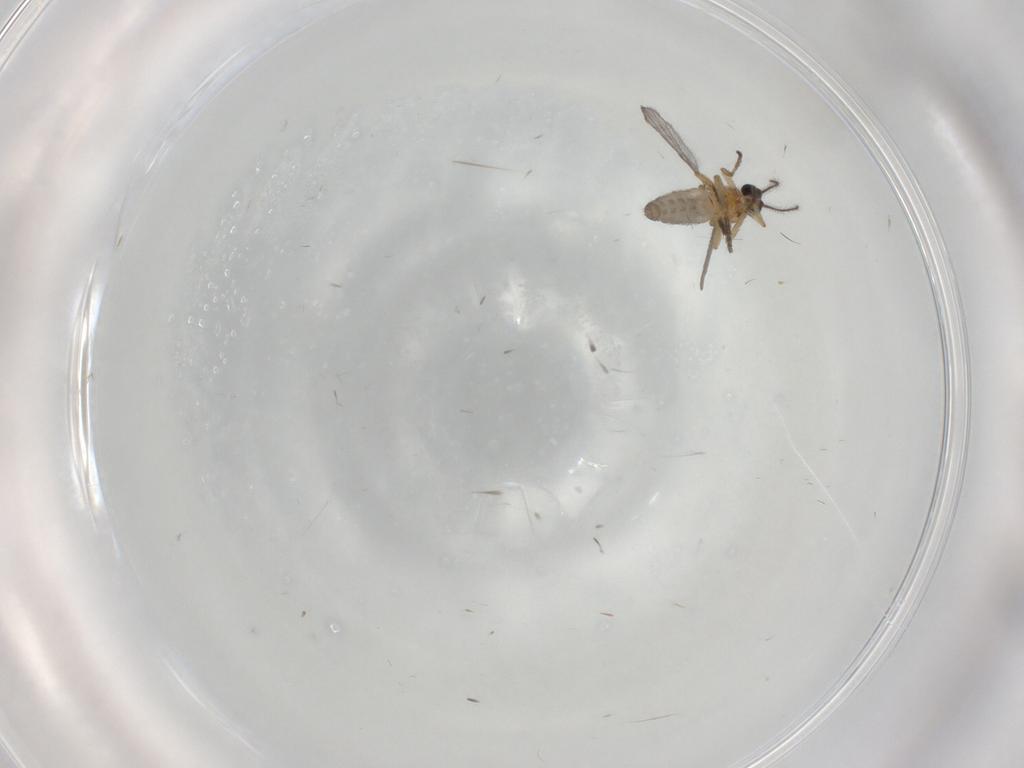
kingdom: Animalia
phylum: Arthropoda
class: Insecta
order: Diptera
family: Ceratopogonidae
